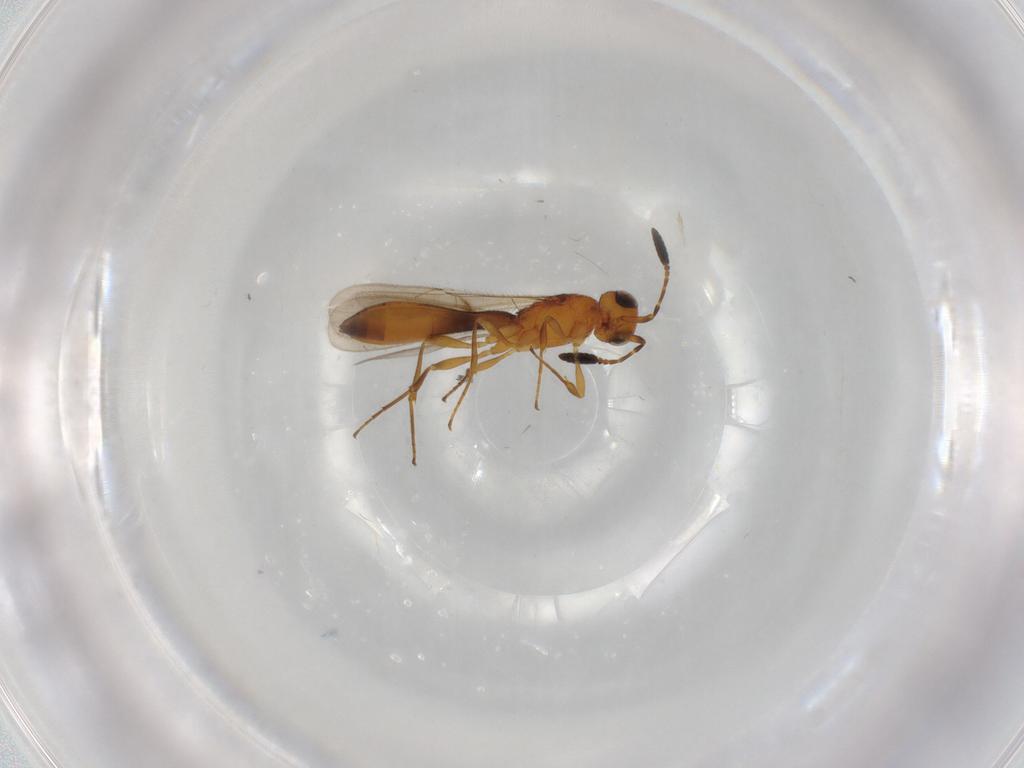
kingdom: Animalia
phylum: Arthropoda
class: Insecta
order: Hymenoptera
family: Scelionidae
